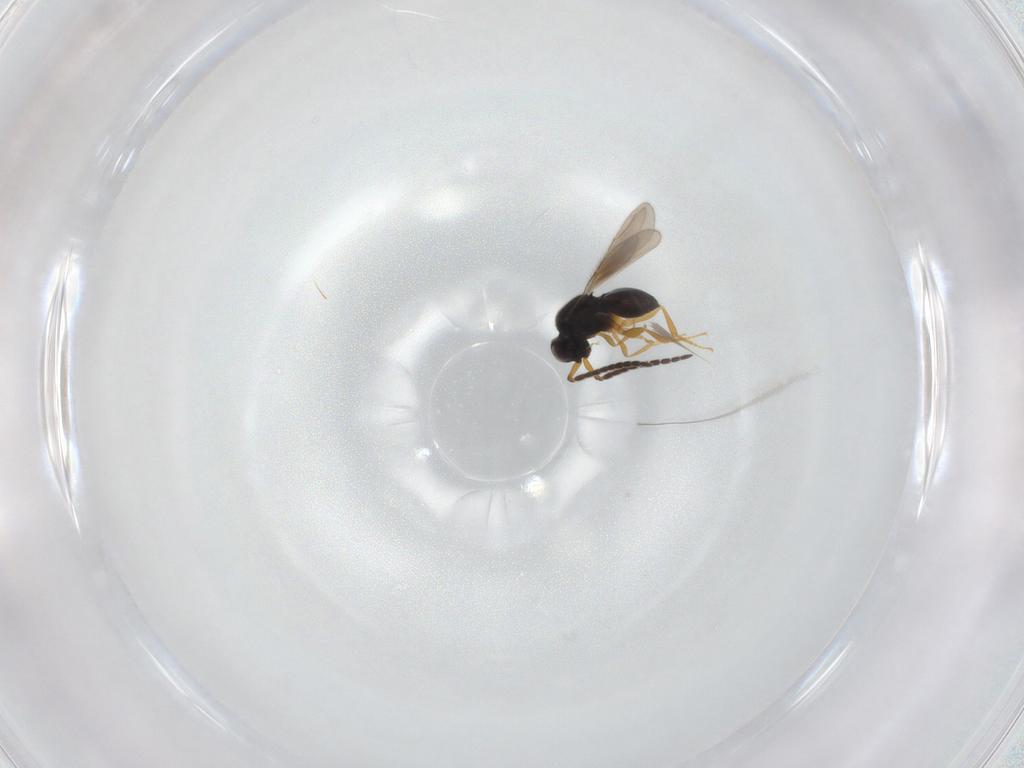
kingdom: Animalia
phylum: Arthropoda
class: Insecta
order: Hymenoptera
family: Ceraphronidae
